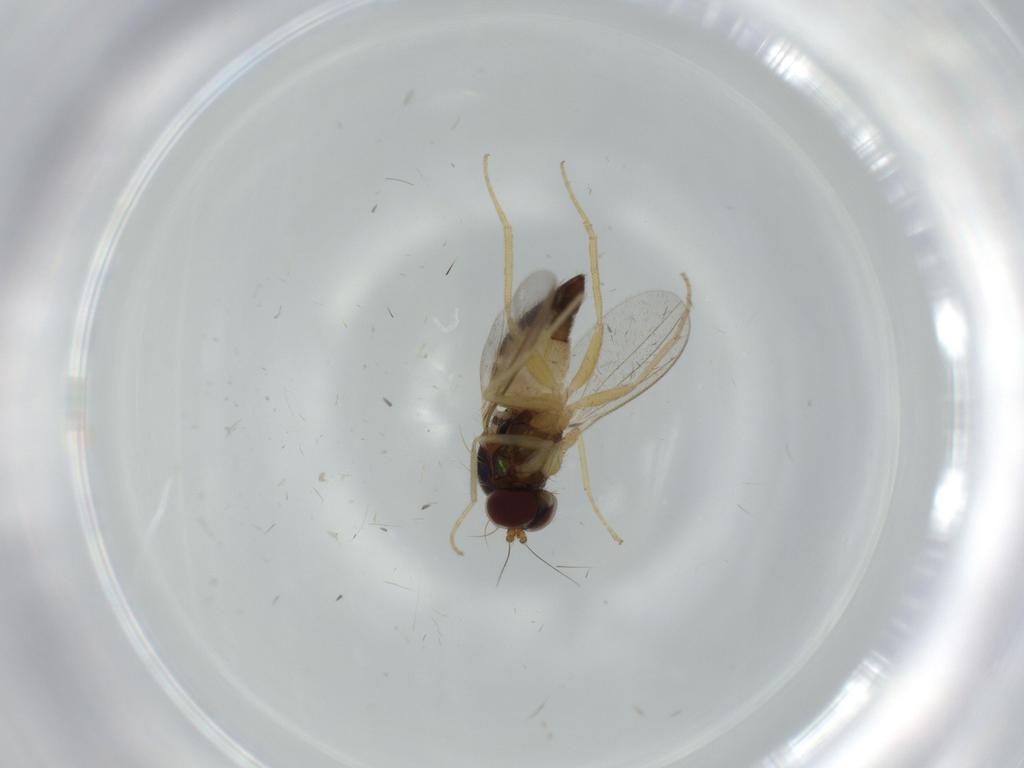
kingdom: Animalia
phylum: Arthropoda
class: Insecta
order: Diptera
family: Dolichopodidae
